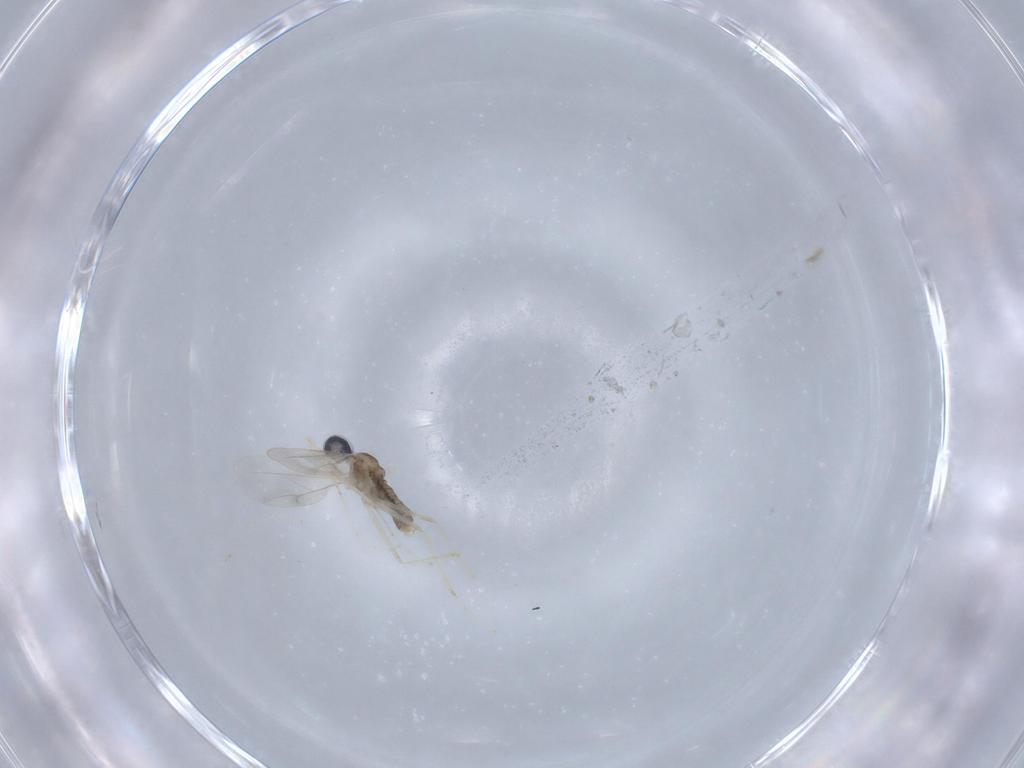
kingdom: Animalia
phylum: Arthropoda
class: Insecta
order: Diptera
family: Cecidomyiidae
